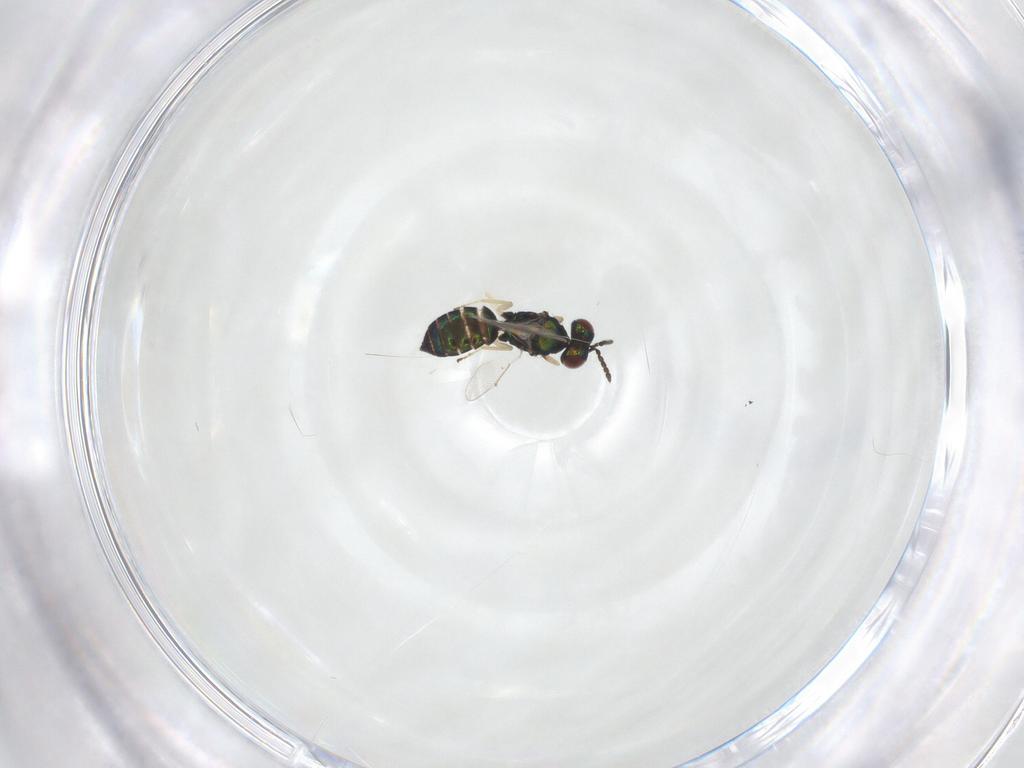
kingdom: Animalia
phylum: Arthropoda
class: Insecta
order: Hymenoptera
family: Eulophidae
